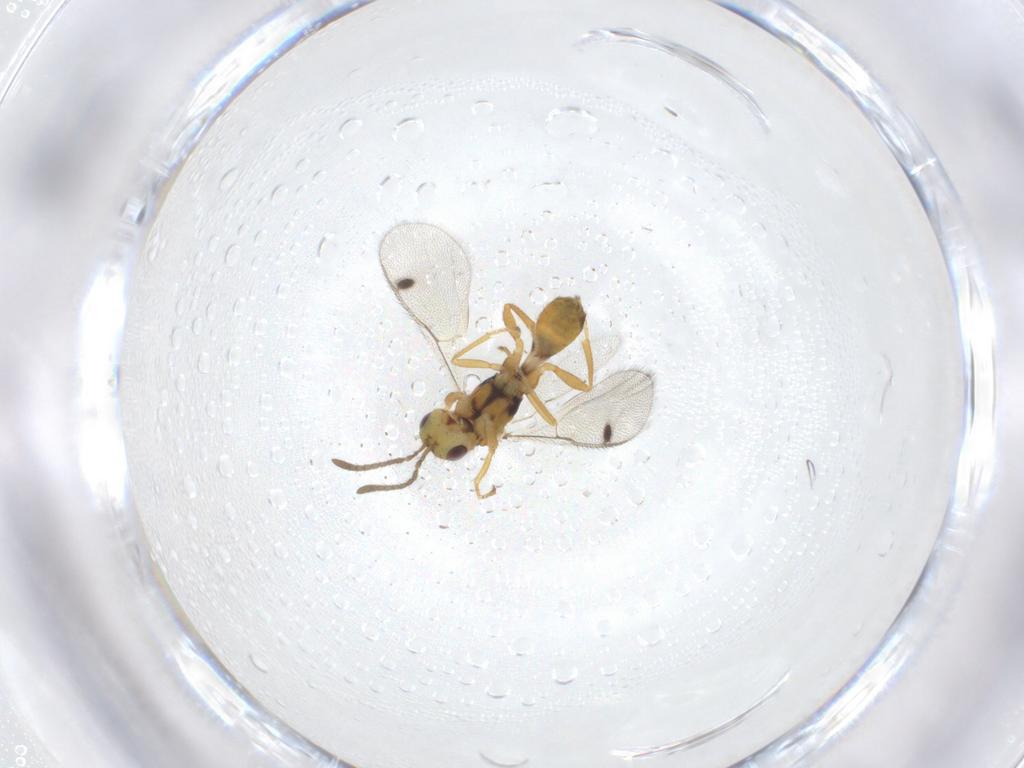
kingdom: Animalia
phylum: Arthropoda
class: Insecta
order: Hymenoptera
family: Megastigmidae
